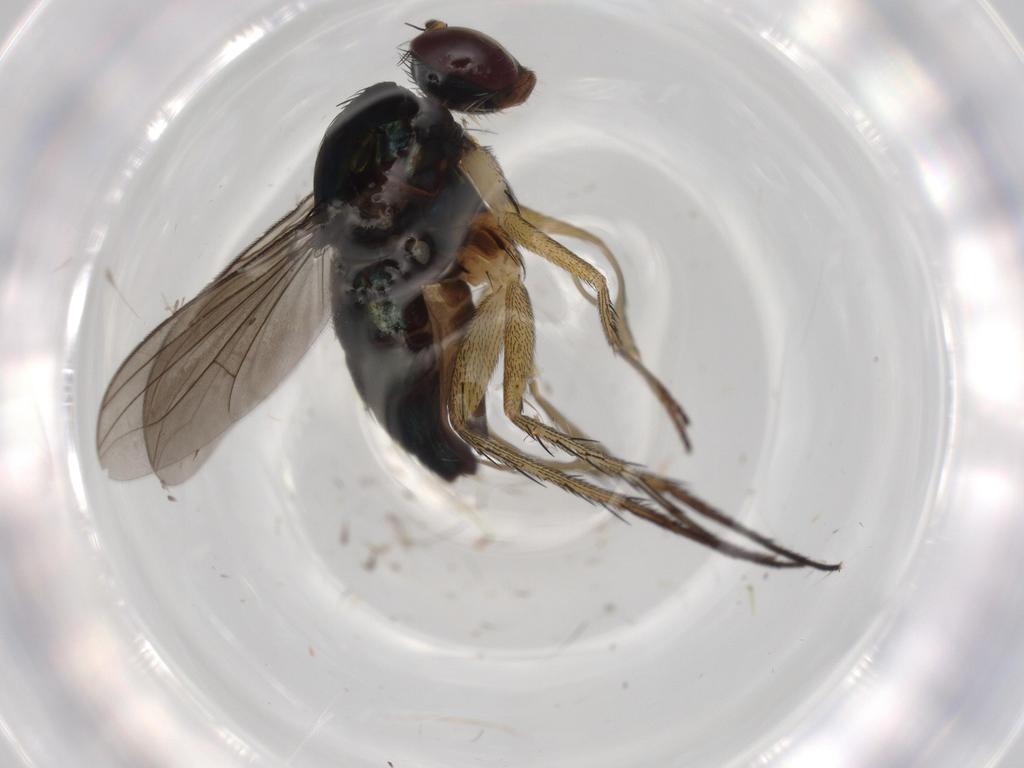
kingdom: Animalia
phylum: Arthropoda
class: Insecta
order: Diptera
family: Dolichopodidae
